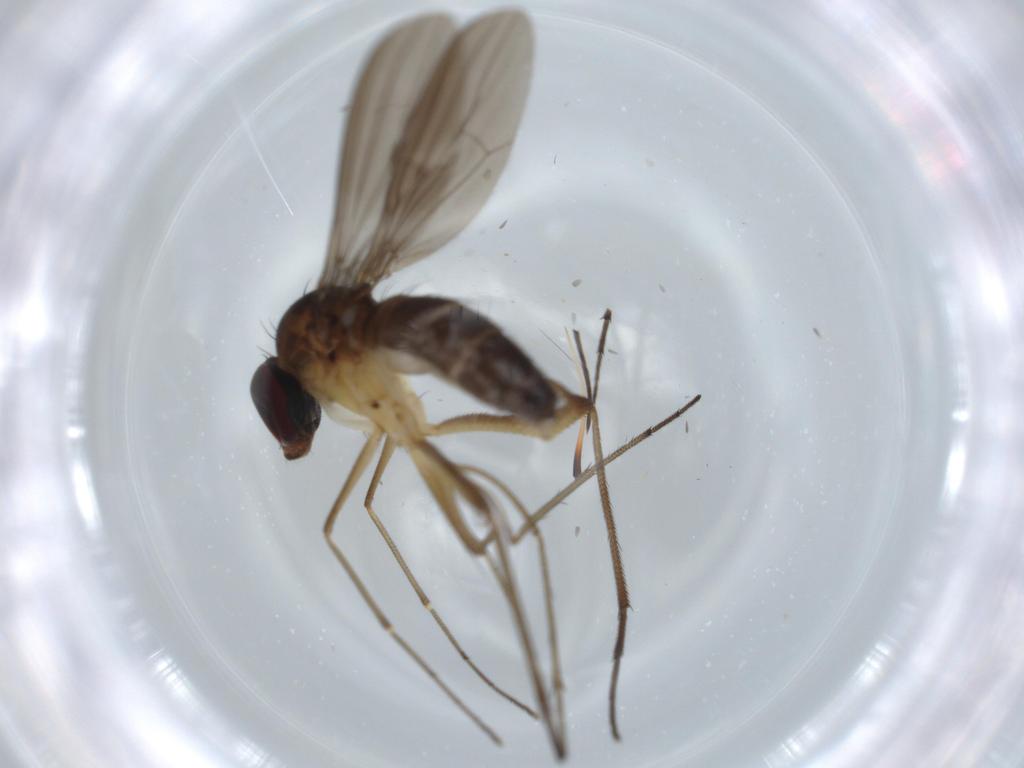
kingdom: Animalia
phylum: Arthropoda
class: Insecta
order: Diptera
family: Dolichopodidae
